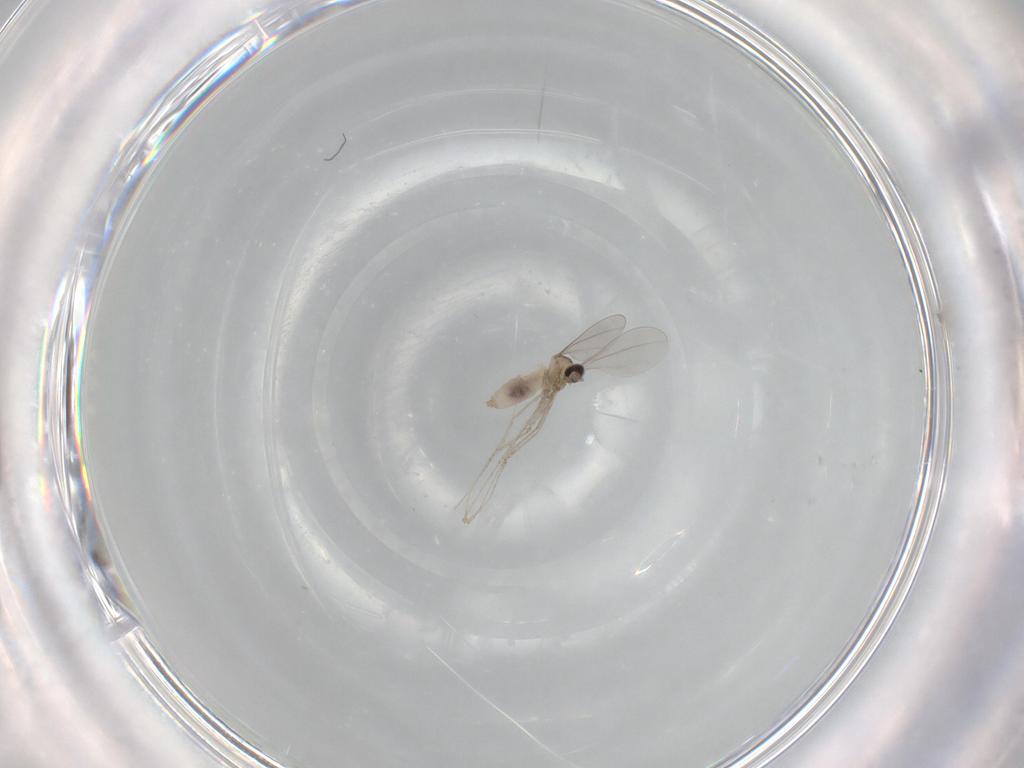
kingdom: Animalia
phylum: Arthropoda
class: Insecta
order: Diptera
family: Cecidomyiidae
